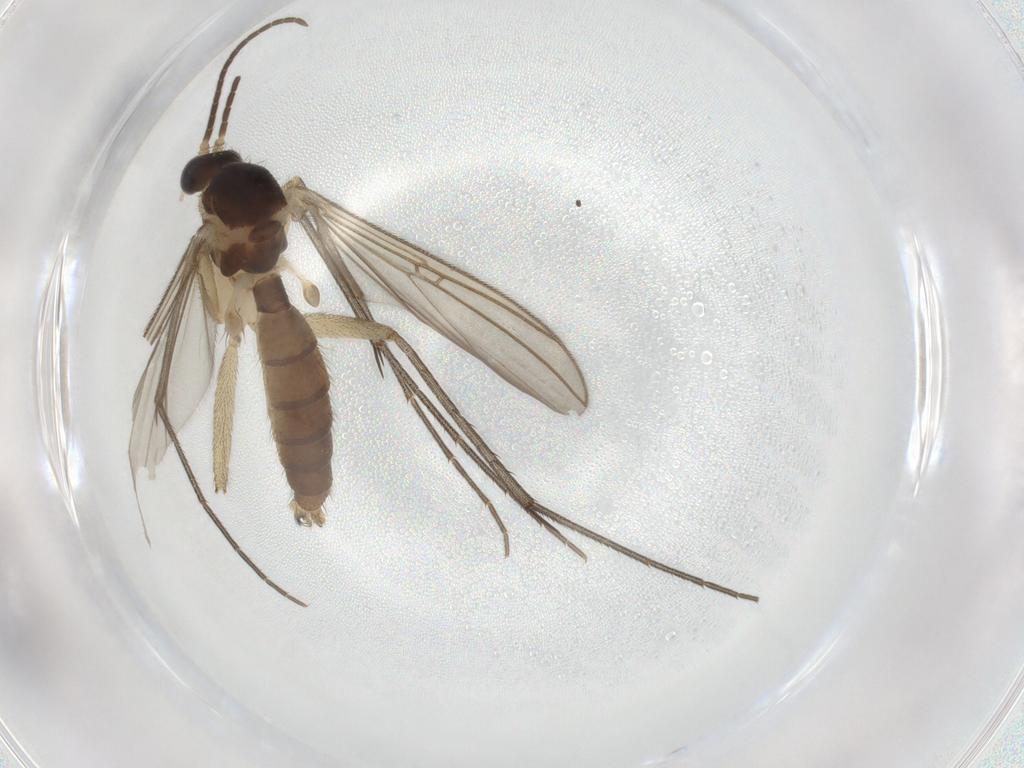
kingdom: Animalia
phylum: Arthropoda
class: Insecta
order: Diptera
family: Mycetophilidae
